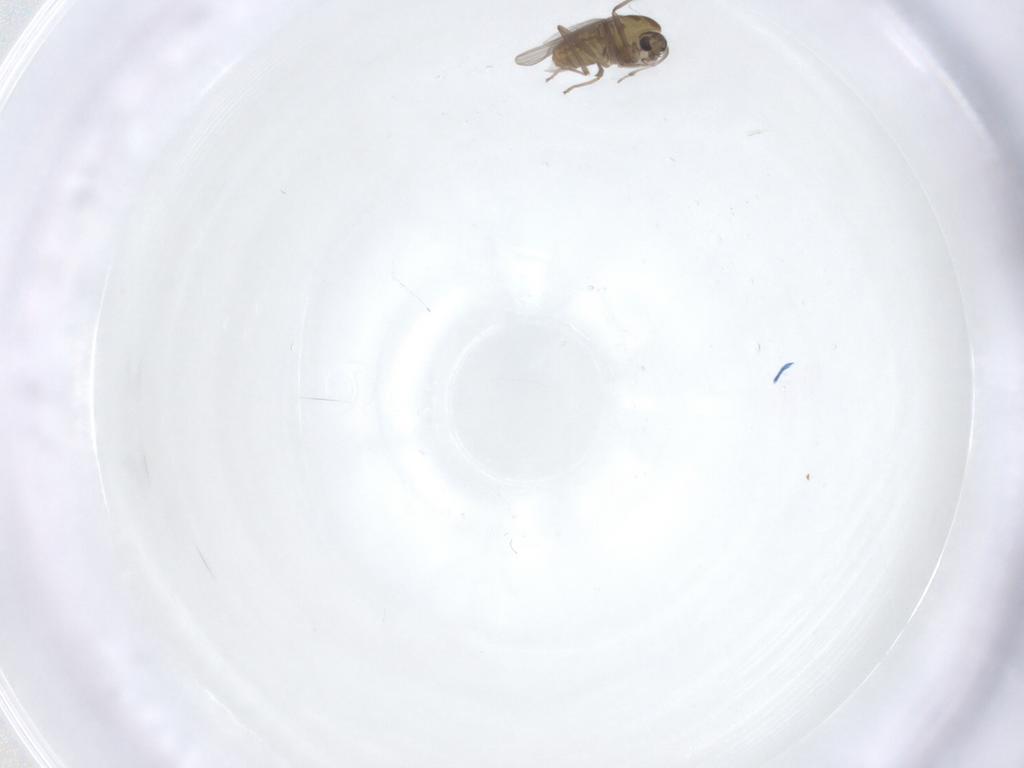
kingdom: Animalia
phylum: Arthropoda
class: Insecta
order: Diptera
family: Chironomidae
